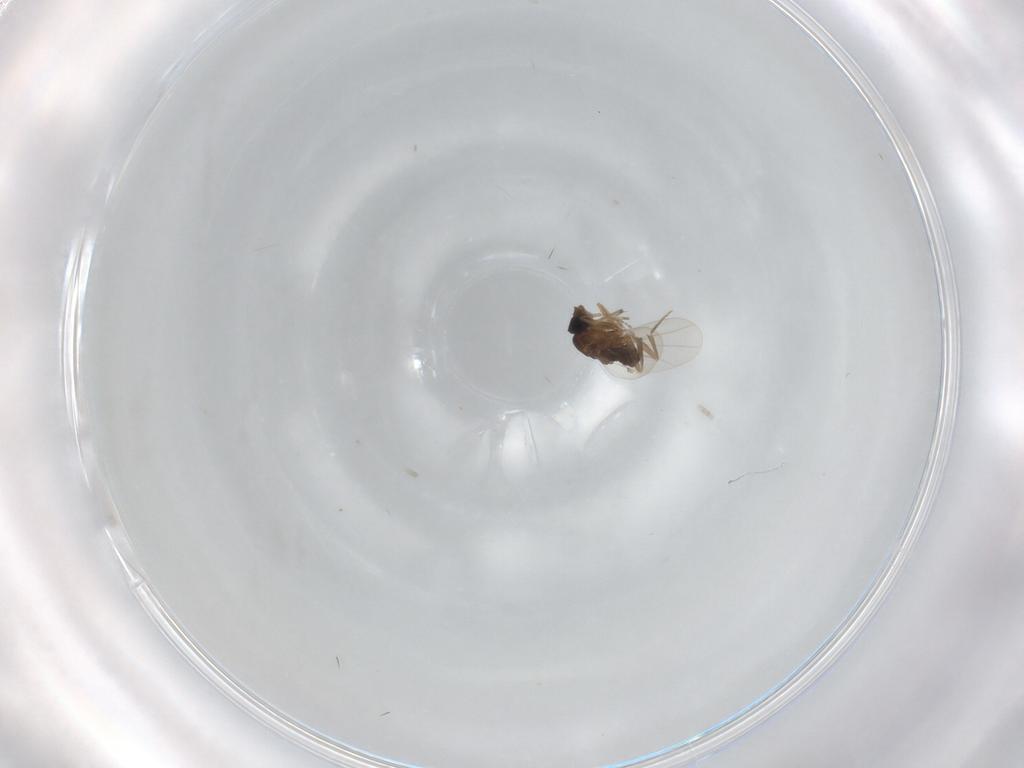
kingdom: Animalia
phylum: Arthropoda
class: Insecta
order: Diptera
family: Phoridae
